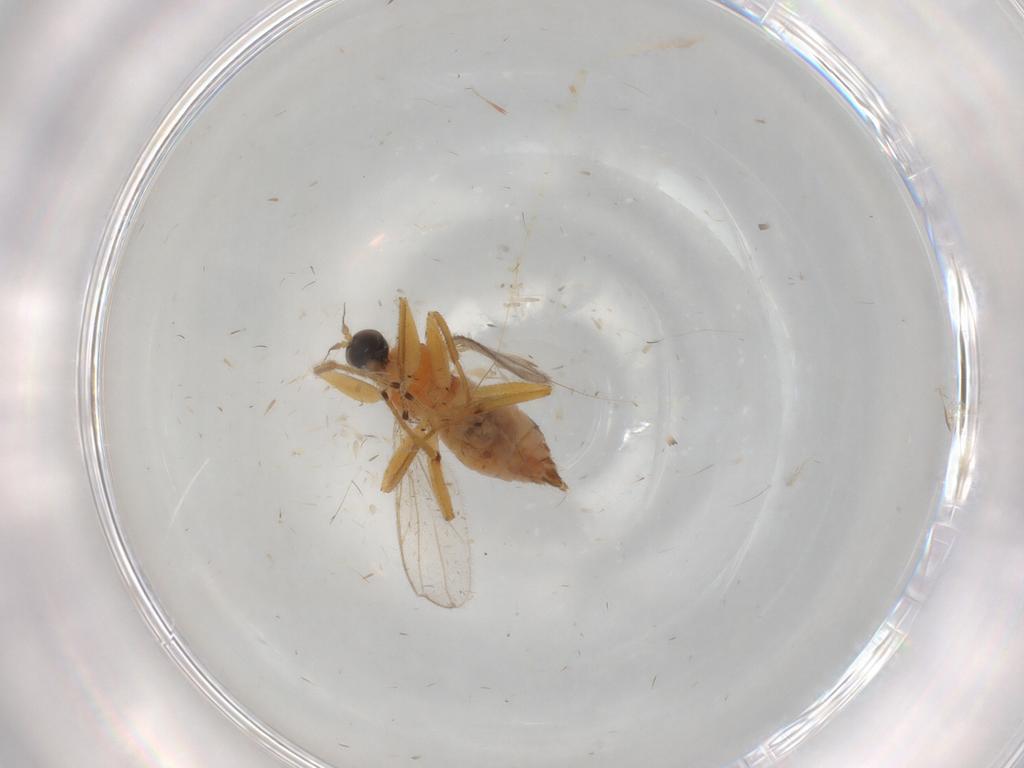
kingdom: Animalia
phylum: Arthropoda
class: Insecta
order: Diptera
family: Hybotidae
